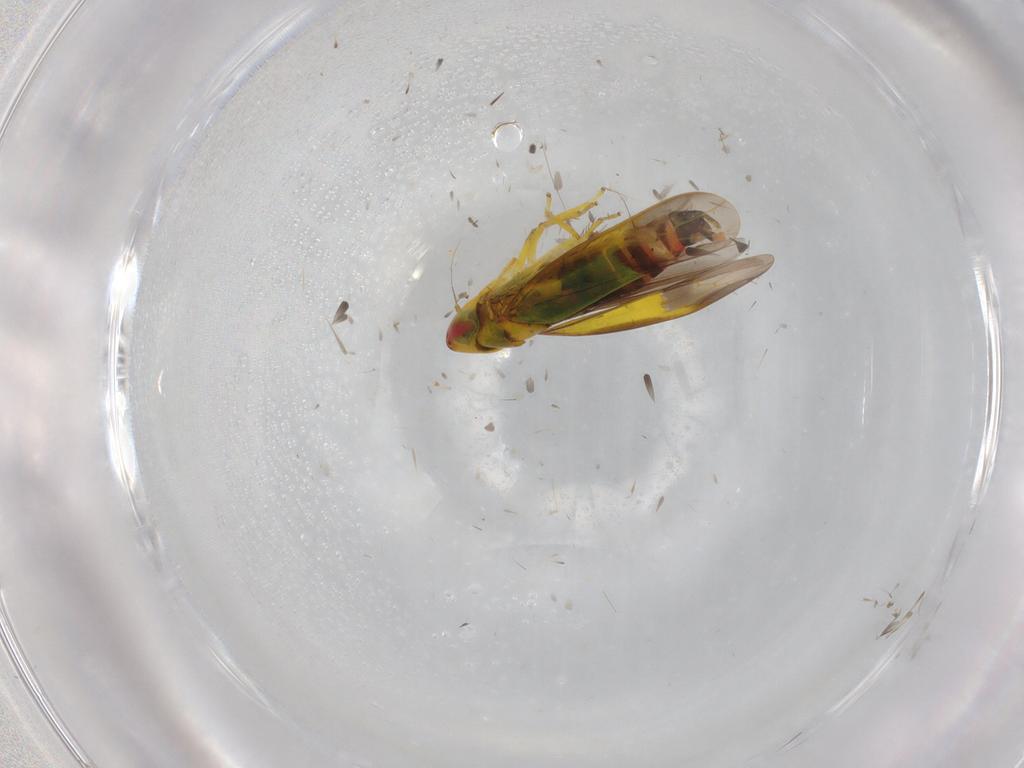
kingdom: Animalia
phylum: Arthropoda
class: Insecta
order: Hemiptera
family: Cicadellidae
